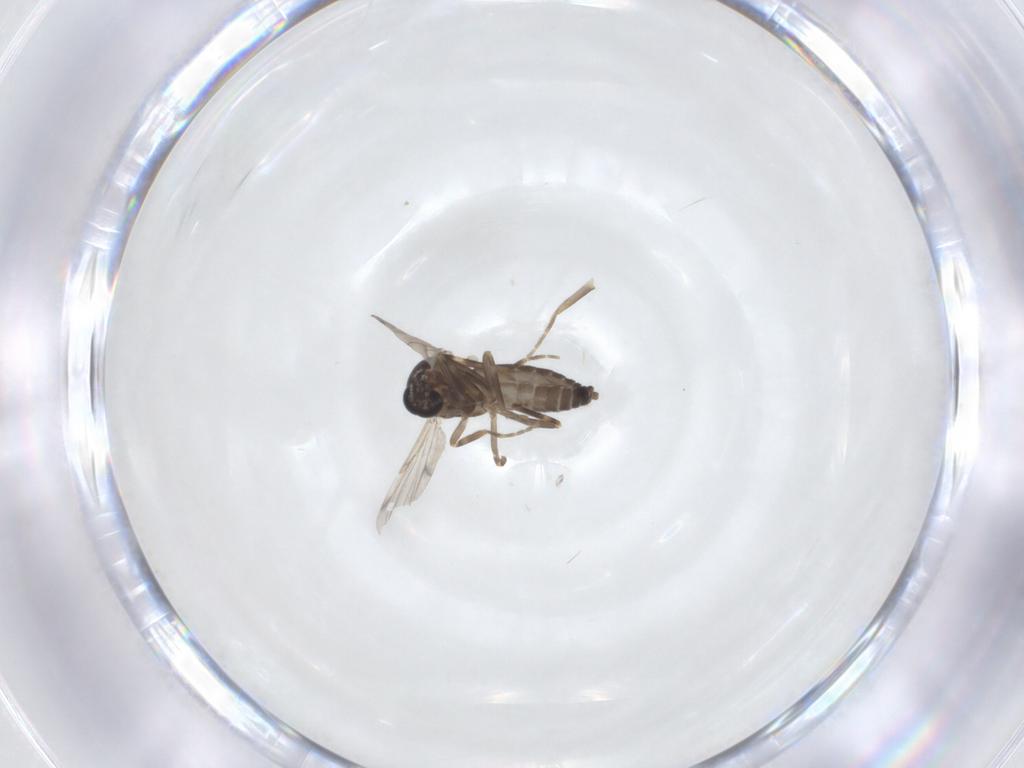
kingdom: Animalia
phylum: Arthropoda
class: Insecta
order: Diptera
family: Ceratopogonidae
